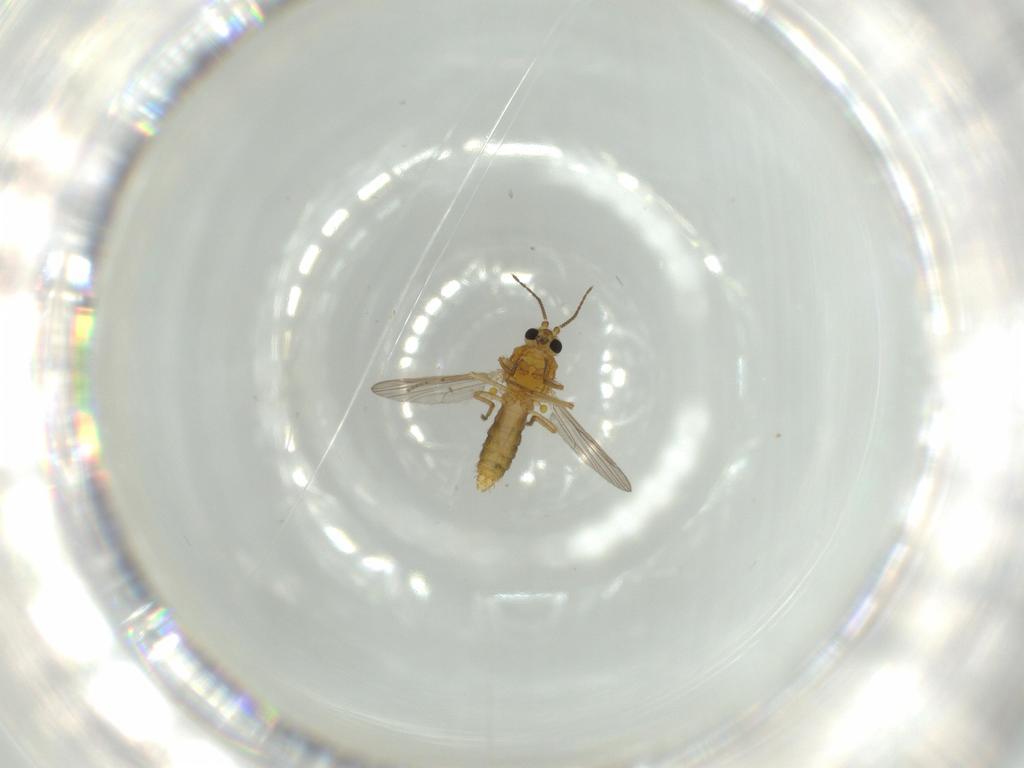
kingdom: Animalia
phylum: Arthropoda
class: Insecta
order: Diptera
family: Ceratopogonidae
